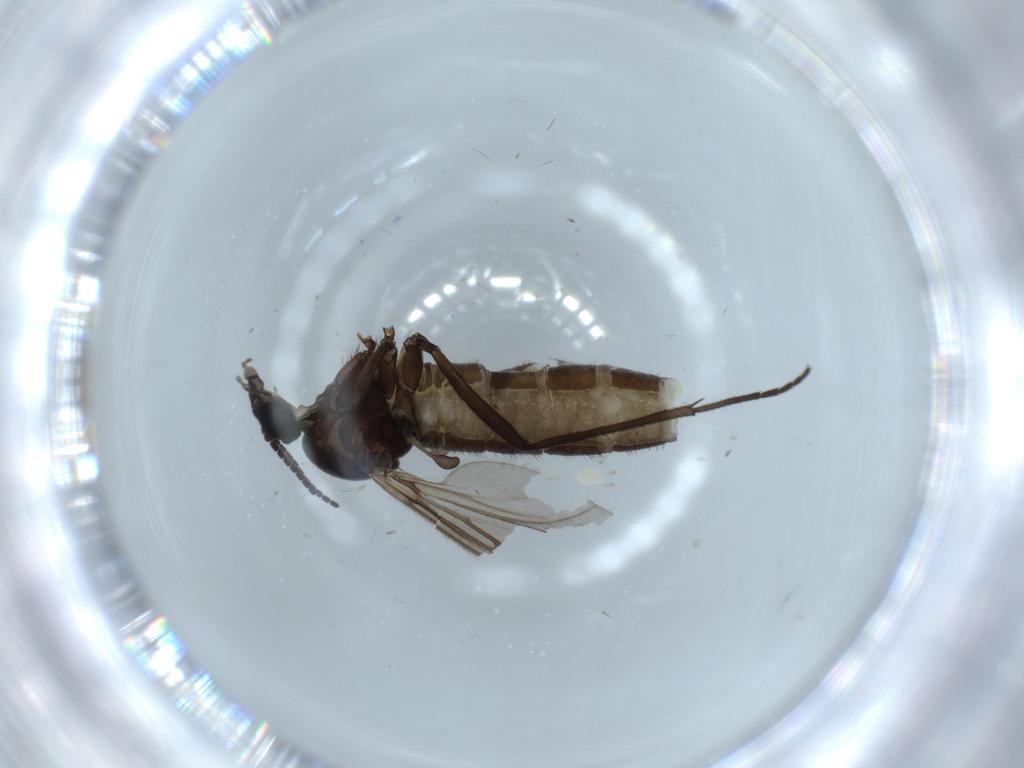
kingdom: Animalia
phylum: Arthropoda
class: Insecta
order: Diptera
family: Sciaridae
